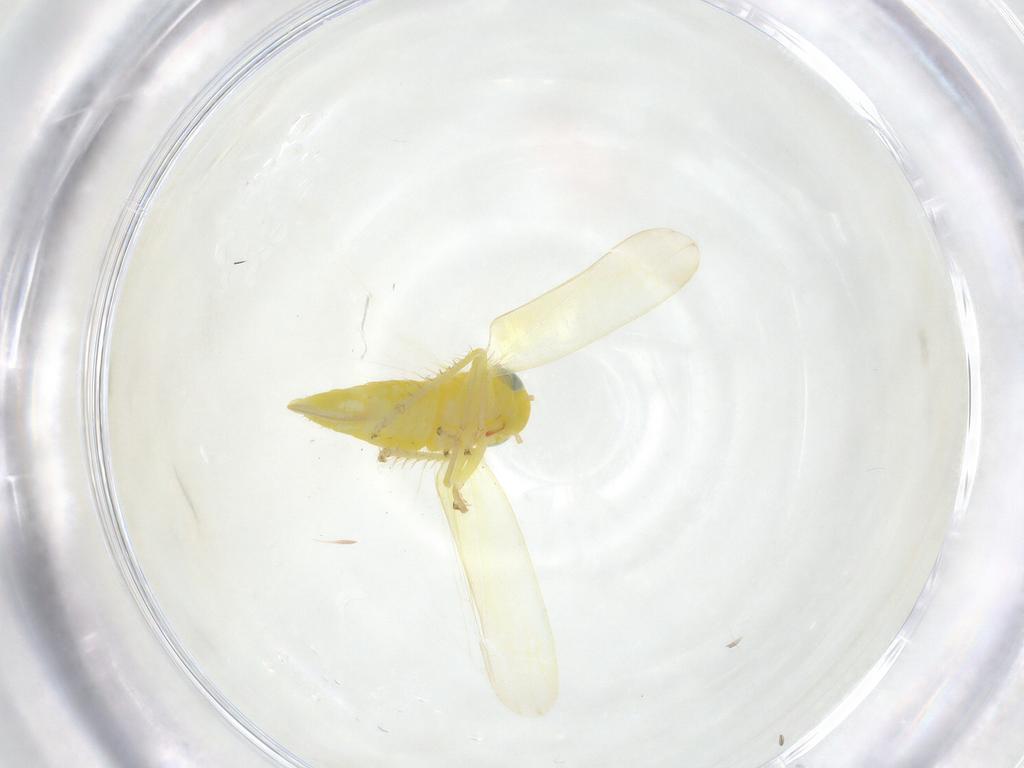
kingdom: Animalia
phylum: Arthropoda
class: Insecta
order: Hemiptera
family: Cicadellidae
